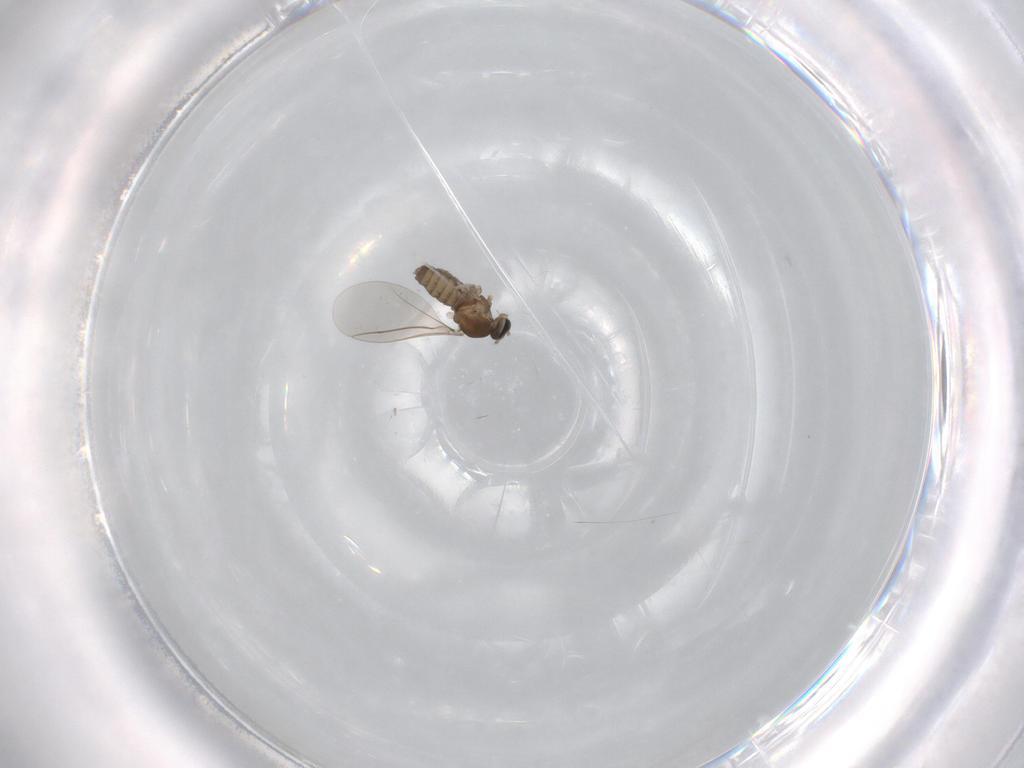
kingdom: Animalia
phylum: Arthropoda
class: Insecta
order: Diptera
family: Cecidomyiidae
